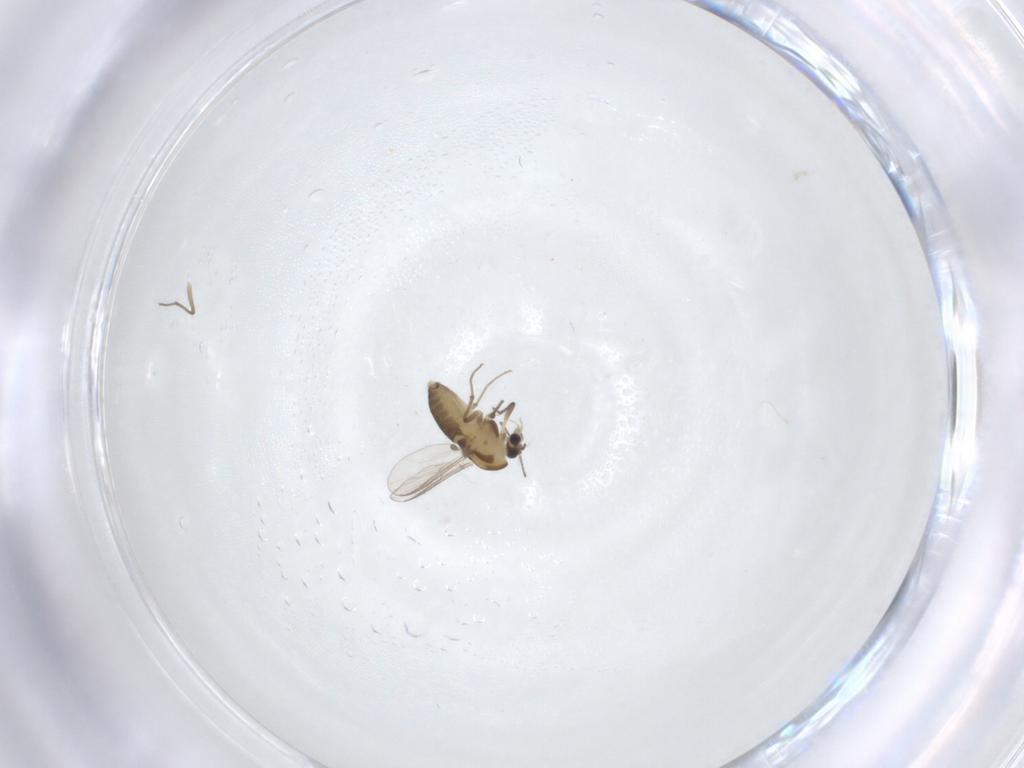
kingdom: Animalia
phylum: Arthropoda
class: Insecta
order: Diptera
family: Chironomidae
